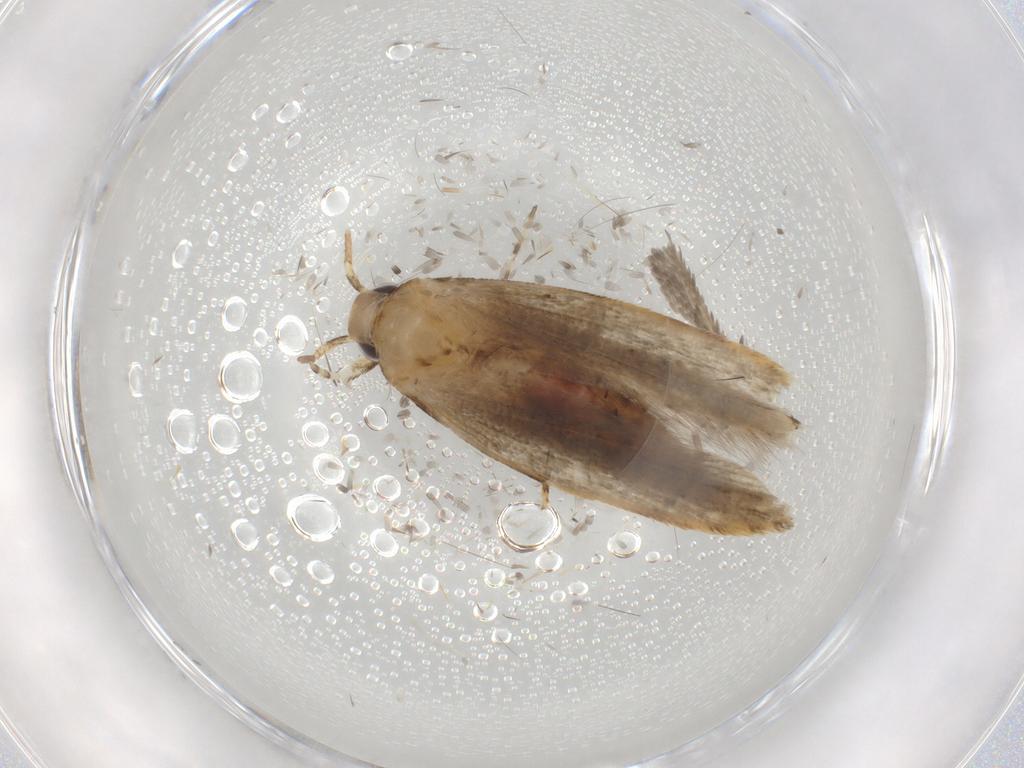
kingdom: Animalia
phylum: Arthropoda
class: Insecta
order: Lepidoptera
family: Gelechiidae
